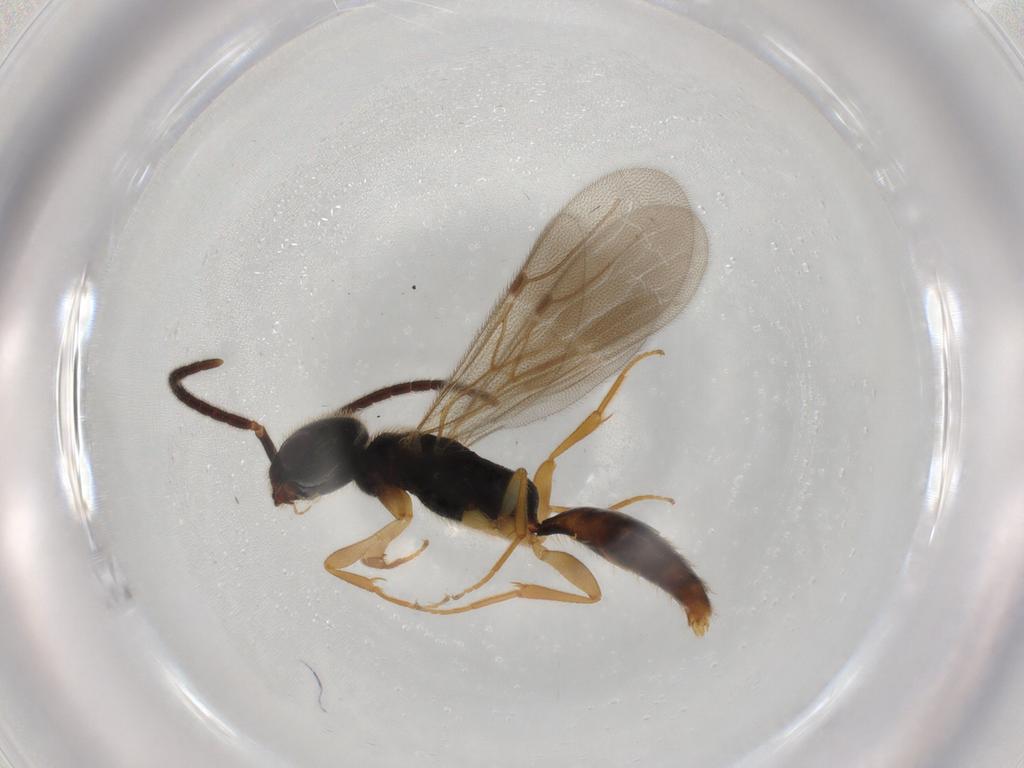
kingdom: Animalia
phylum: Arthropoda
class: Insecta
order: Hymenoptera
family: Bethylidae
